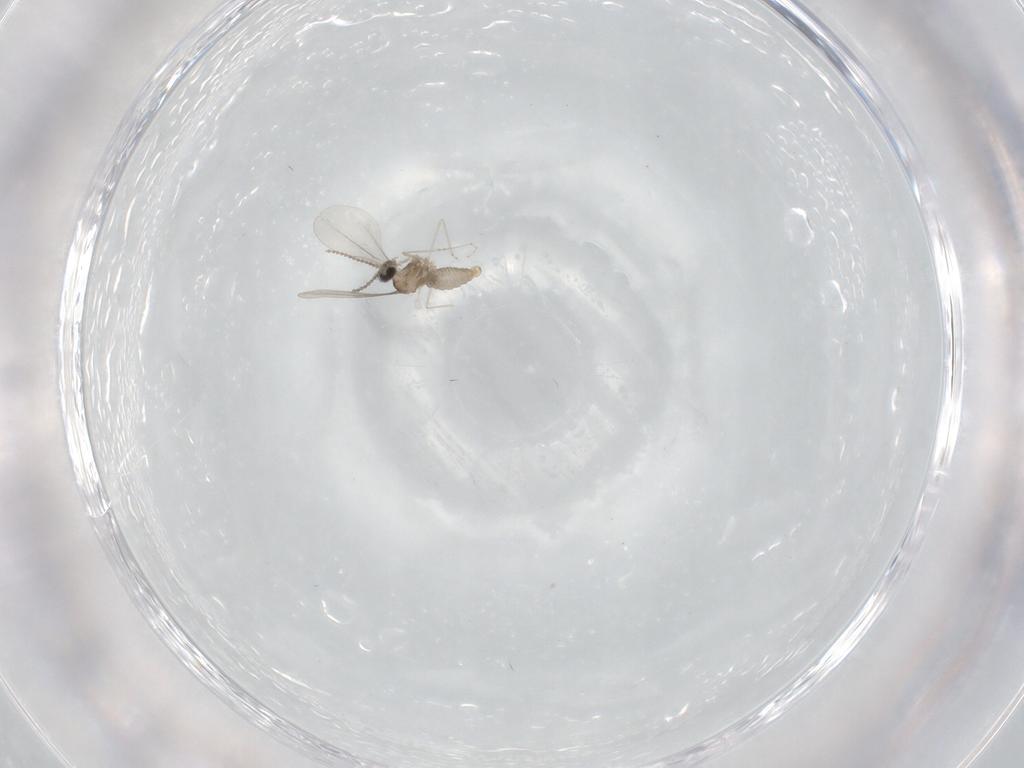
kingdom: Animalia
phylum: Arthropoda
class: Insecta
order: Diptera
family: Cecidomyiidae
